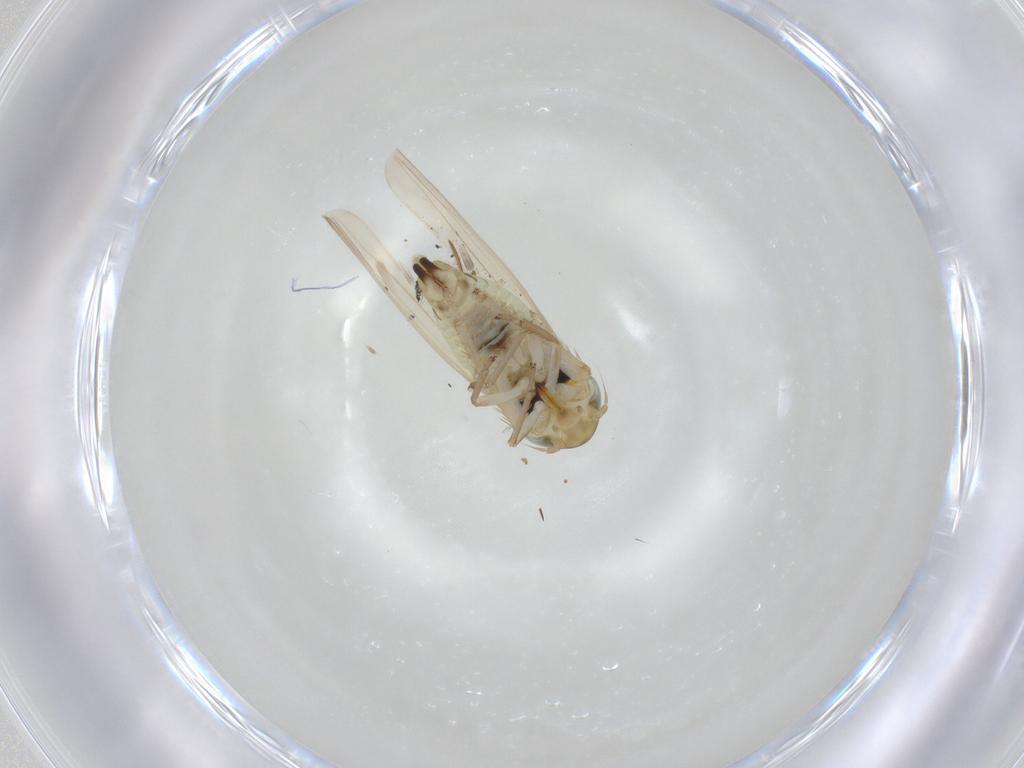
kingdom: Animalia
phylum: Arthropoda
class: Insecta
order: Hemiptera
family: Cicadellidae
